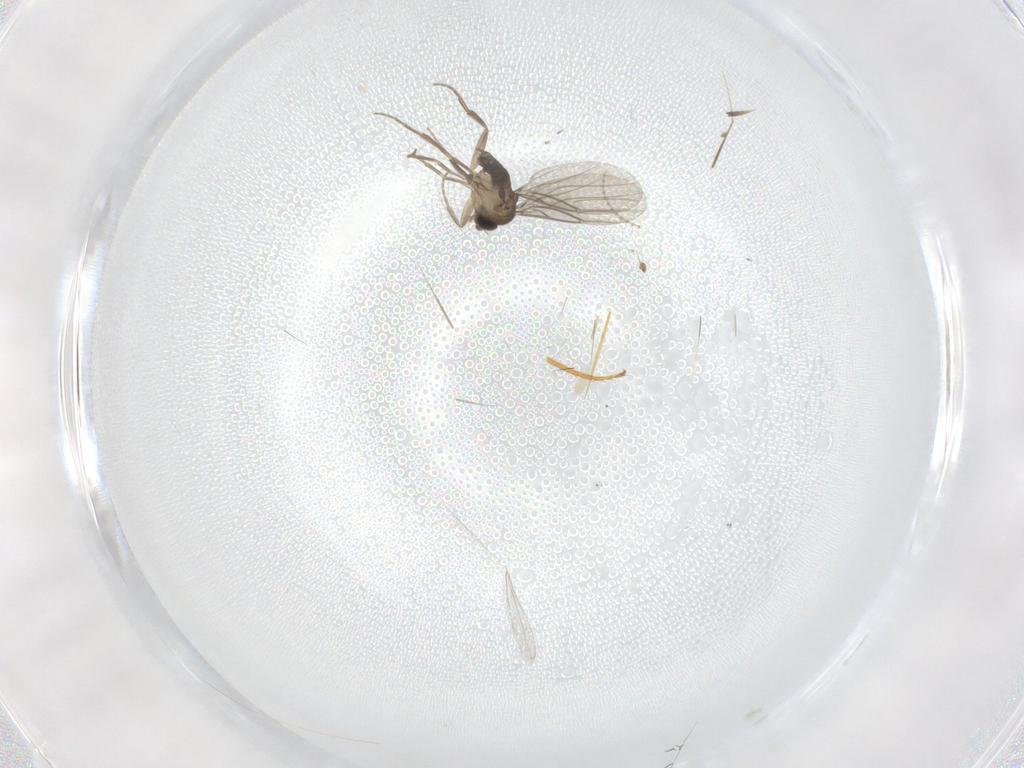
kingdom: Animalia
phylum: Arthropoda
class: Insecta
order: Diptera
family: Cecidomyiidae
